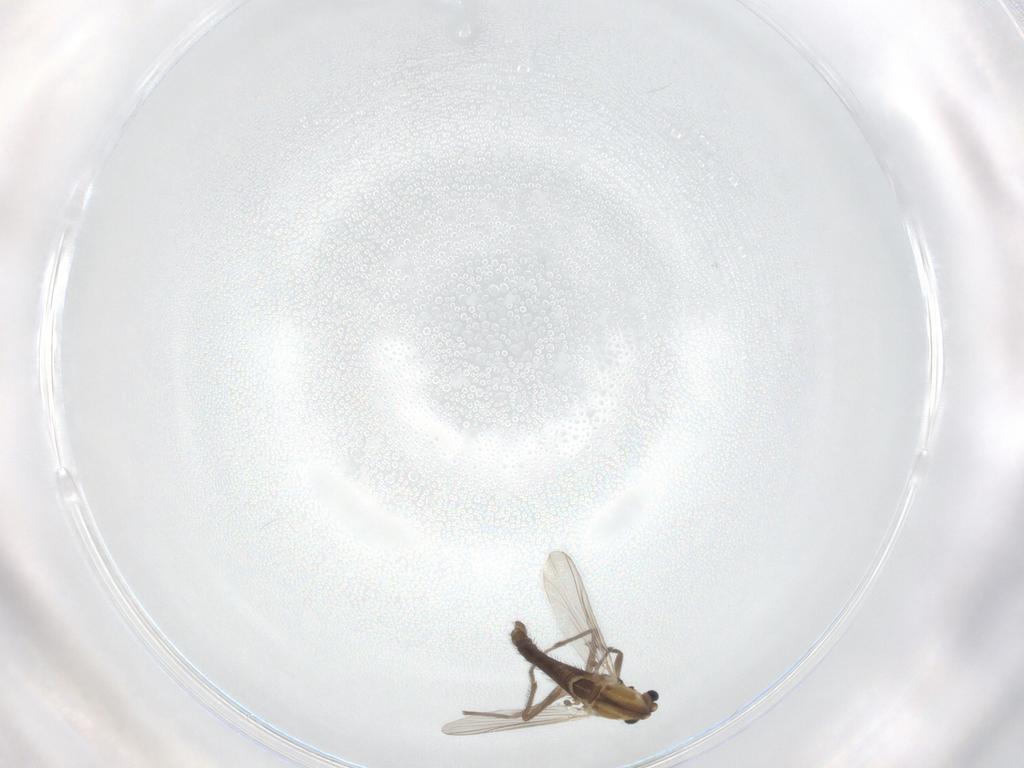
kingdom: Animalia
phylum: Arthropoda
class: Insecta
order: Diptera
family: Chironomidae
